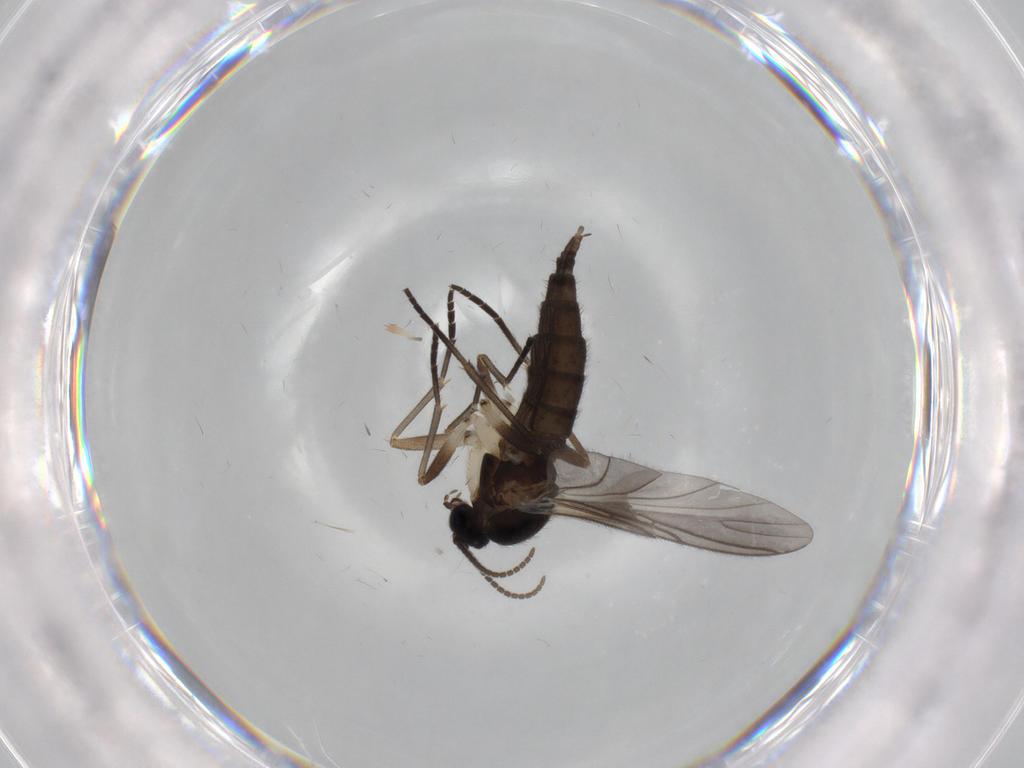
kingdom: Animalia
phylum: Arthropoda
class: Insecta
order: Diptera
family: Sciaridae
